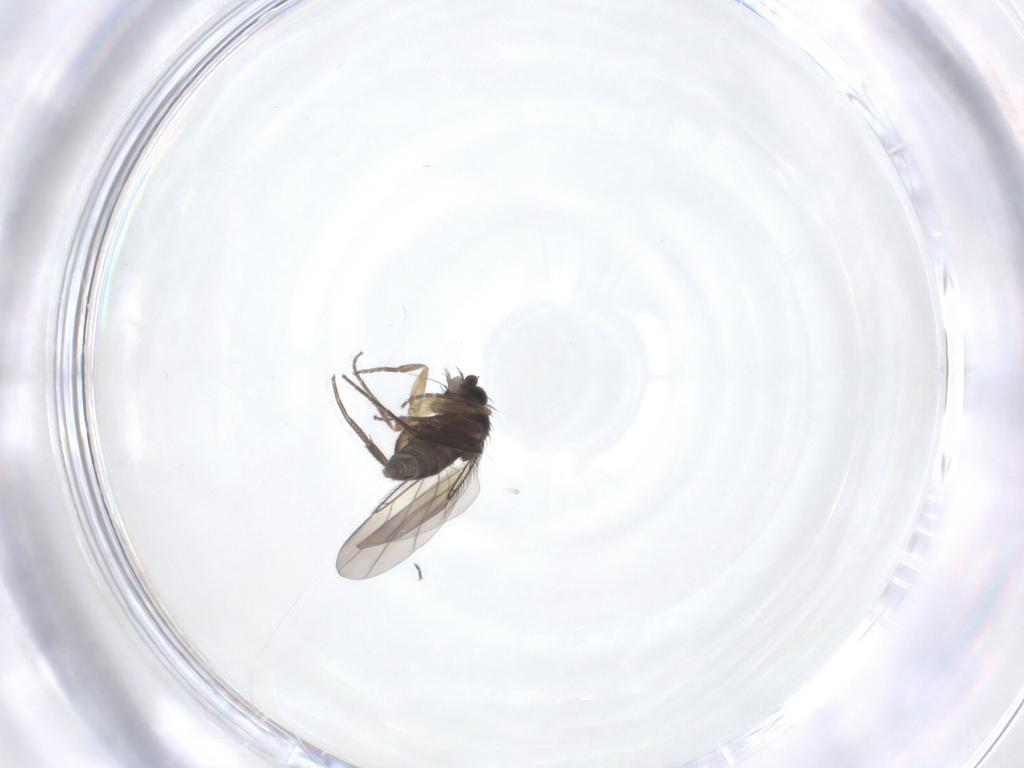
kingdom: Animalia
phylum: Arthropoda
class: Insecta
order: Diptera
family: Phoridae
